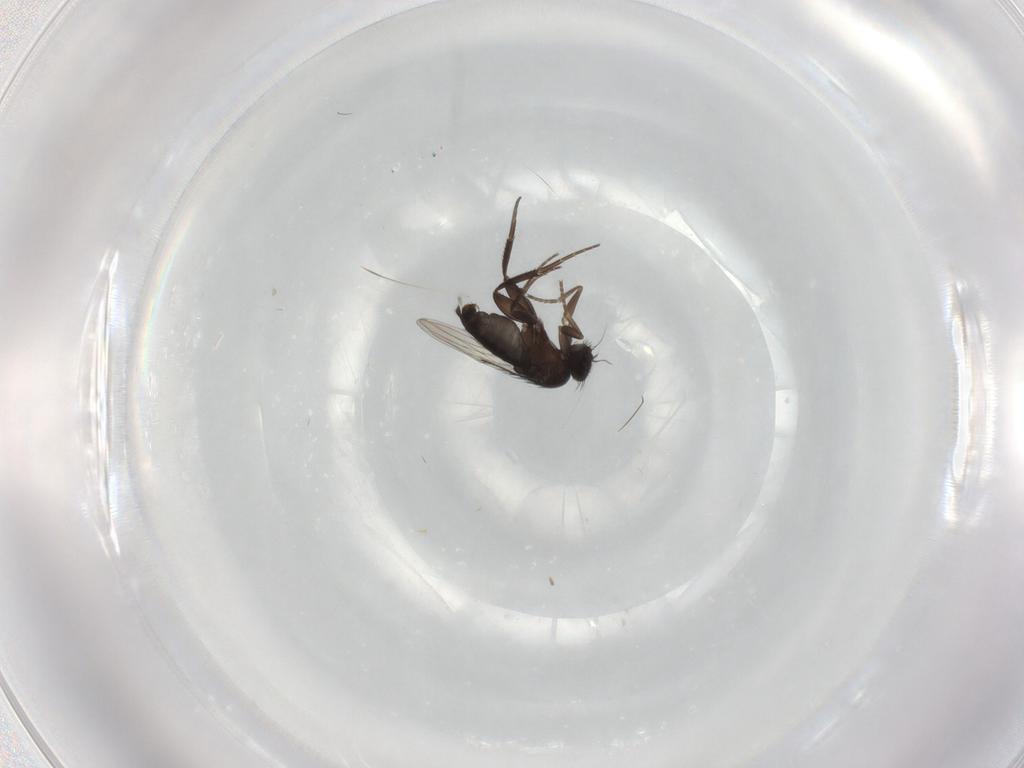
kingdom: Animalia
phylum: Arthropoda
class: Insecta
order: Diptera
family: Phoridae
